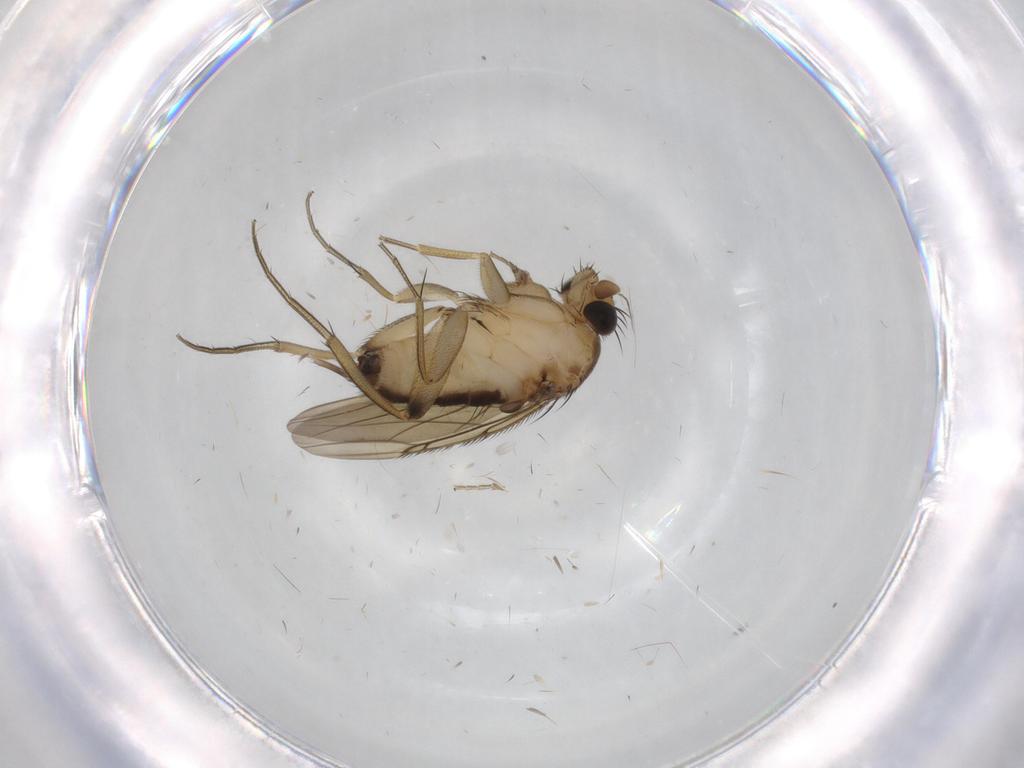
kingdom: Animalia
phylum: Arthropoda
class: Insecta
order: Diptera
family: Phoridae
